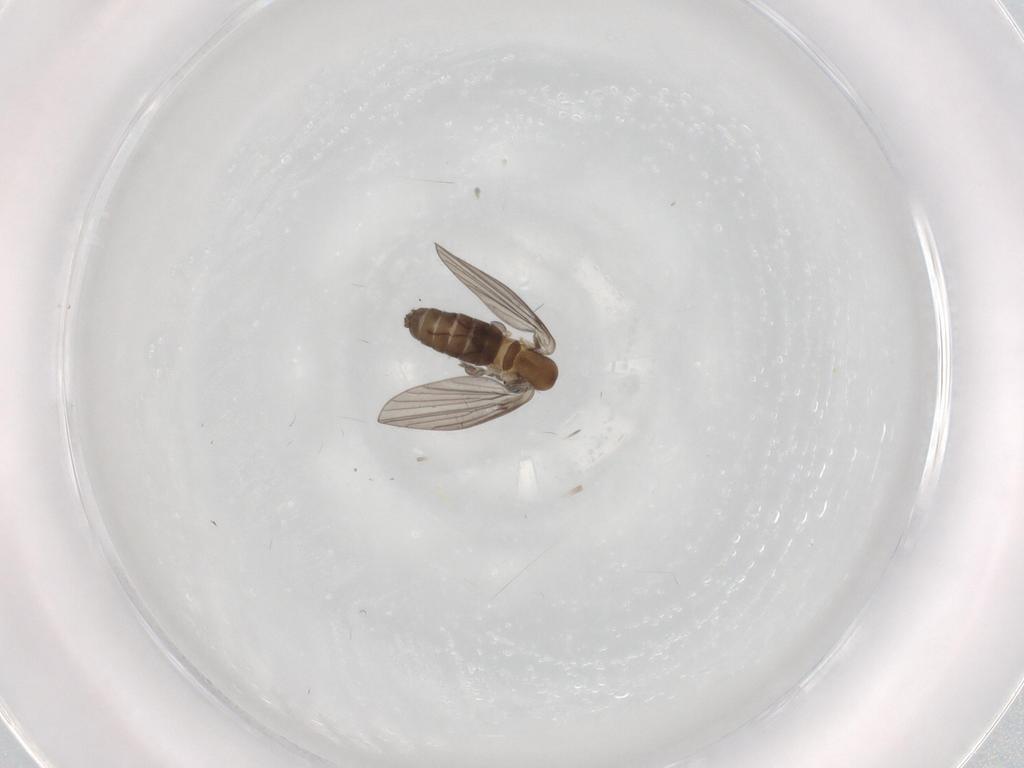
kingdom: Animalia
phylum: Arthropoda
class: Insecta
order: Diptera
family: Psychodidae
